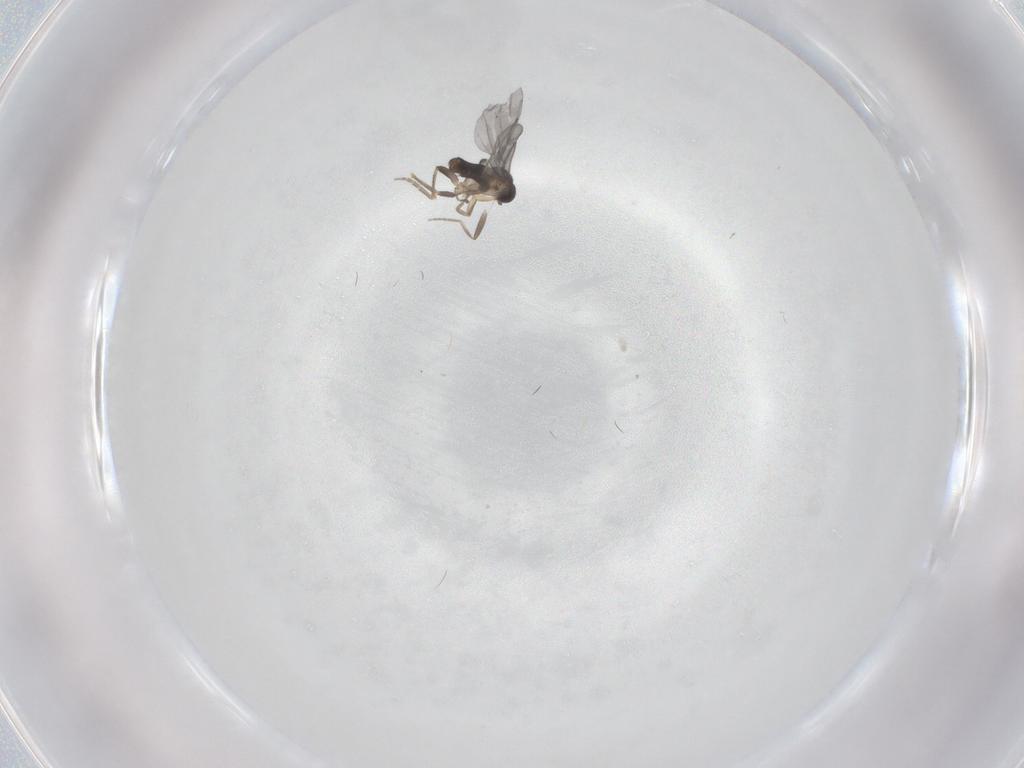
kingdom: Animalia
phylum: Arthropoda
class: Insecta
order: Diptera
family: Phoridae
